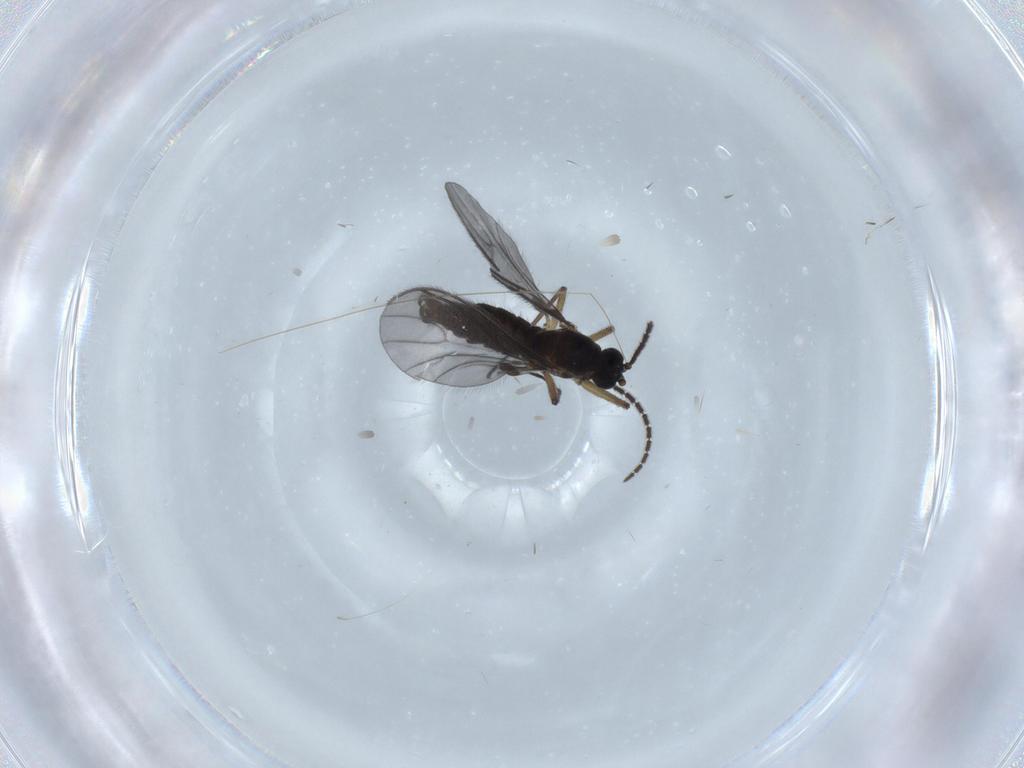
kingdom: Animalia
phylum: Arthropoda
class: Insecta
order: Diptera
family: Sciaridae
